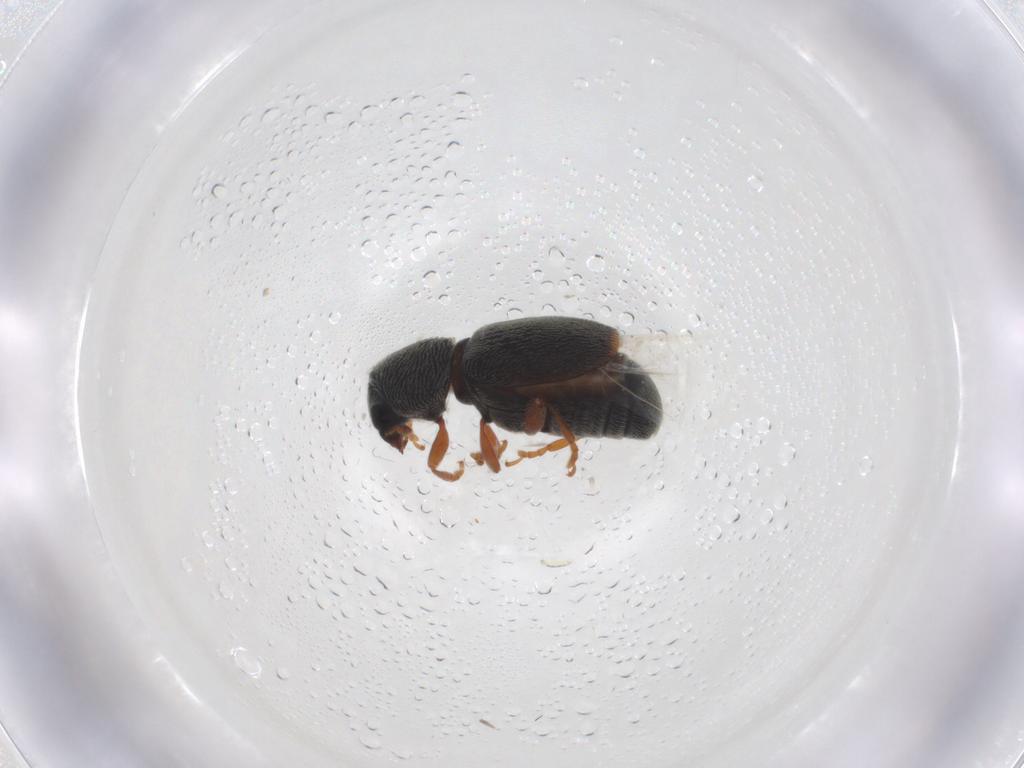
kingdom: Animalia
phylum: Arthropoda
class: Insecta
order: Coleoptera
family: Anthribidae
